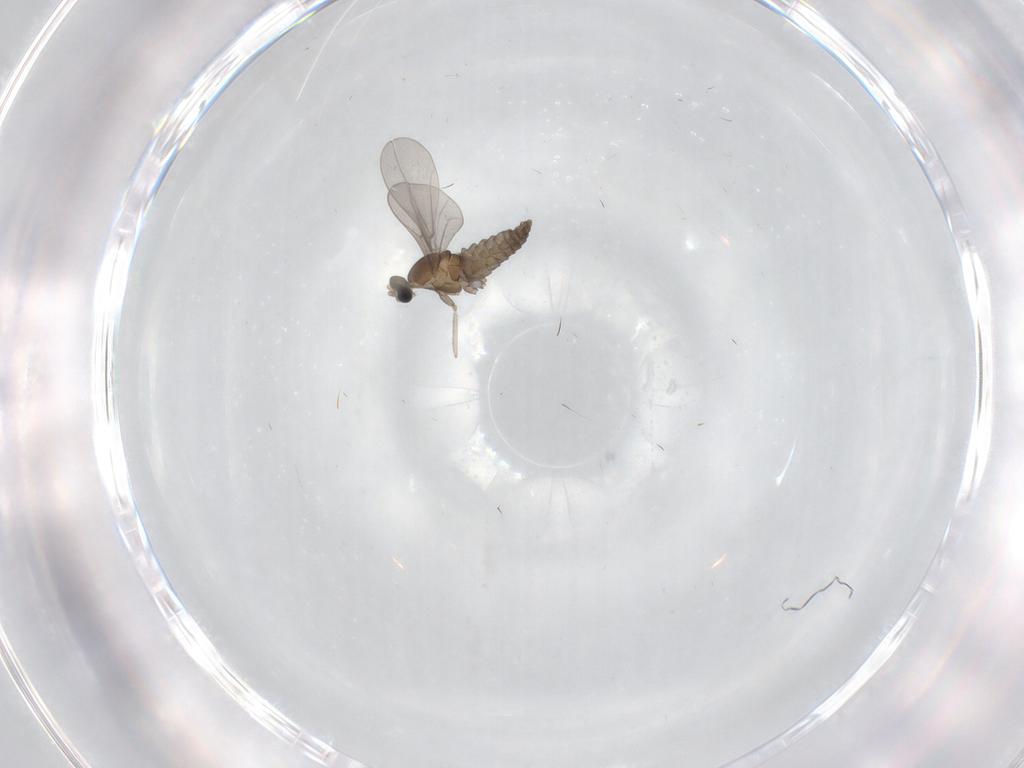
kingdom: Animalia
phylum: Arthropoda
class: Insecta
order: Diptera
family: Cecidomyiidae
